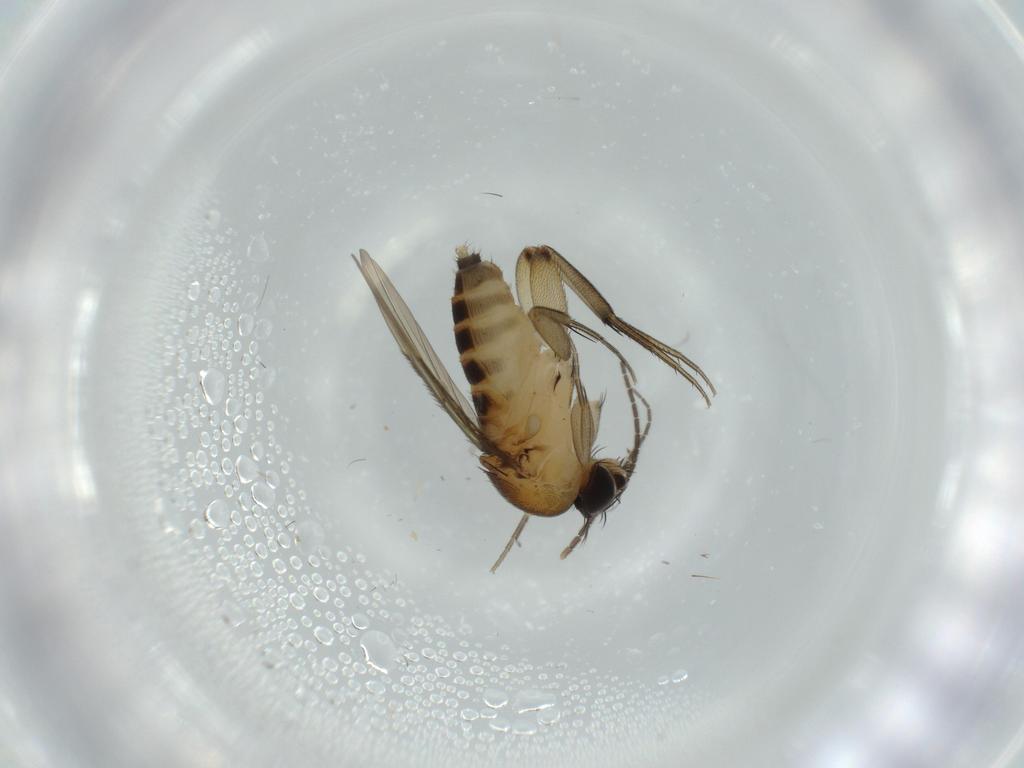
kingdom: Animalia
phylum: Arthropoda
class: Insecta
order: Diptera
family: Phoridae
